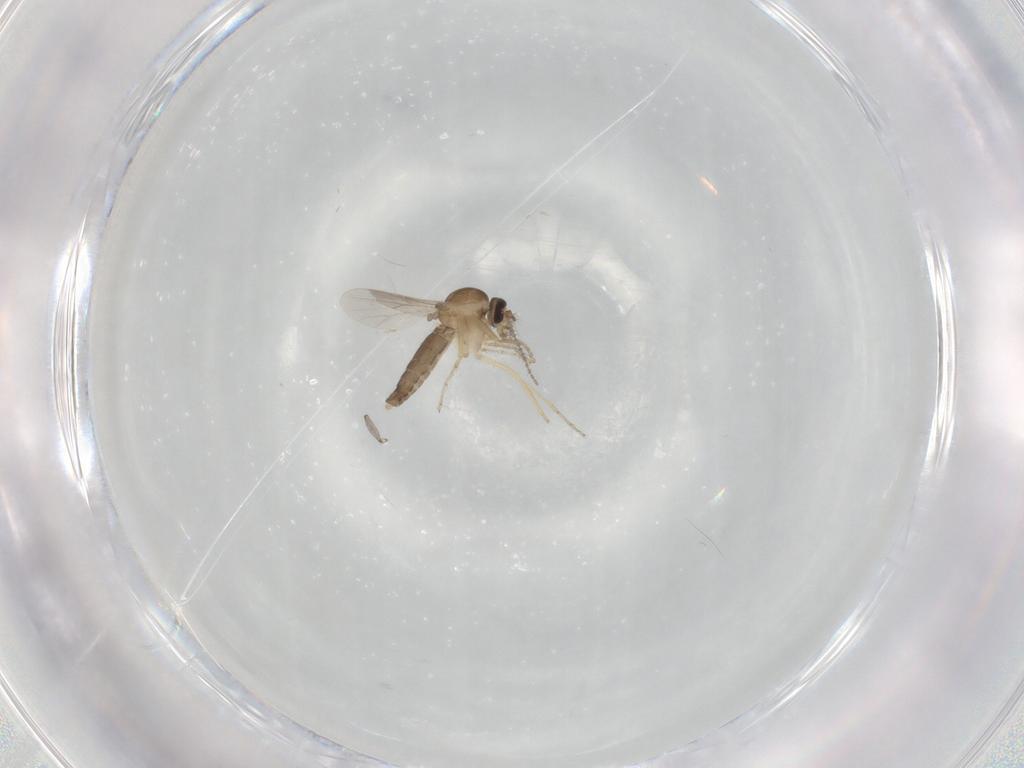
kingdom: Animalia
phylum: Arthropoda
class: Insecta
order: Diptera
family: Ceratopogonidae
